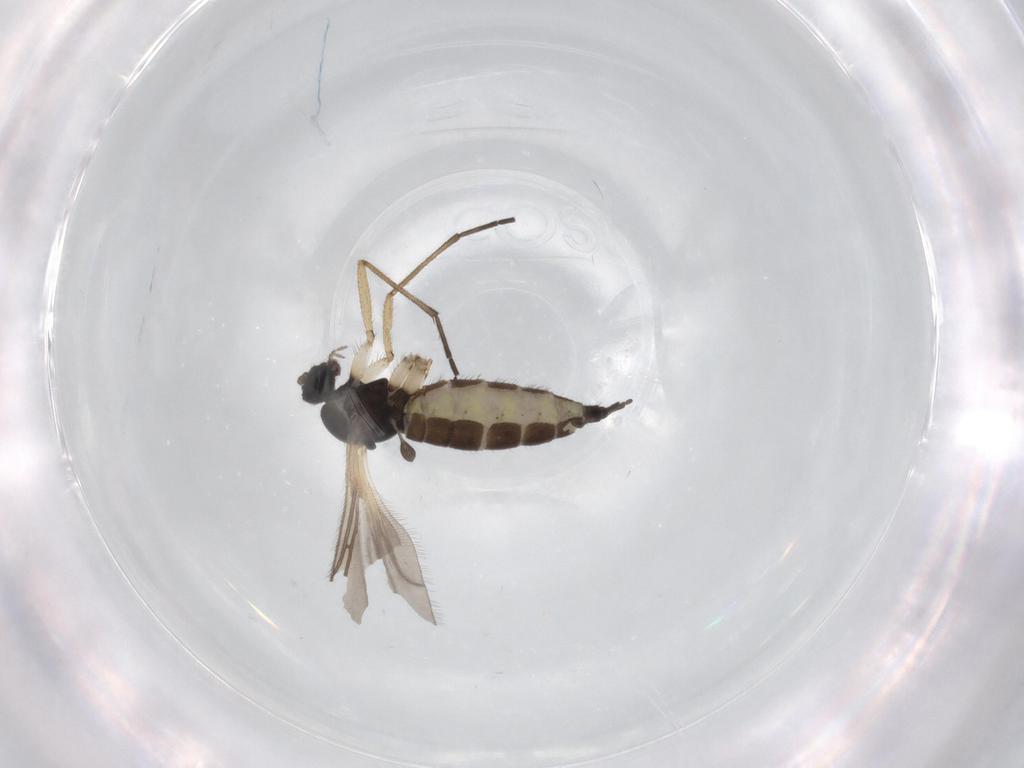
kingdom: Animalia
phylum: Arthropoda
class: Insecta
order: Diptera
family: Sciaridae
